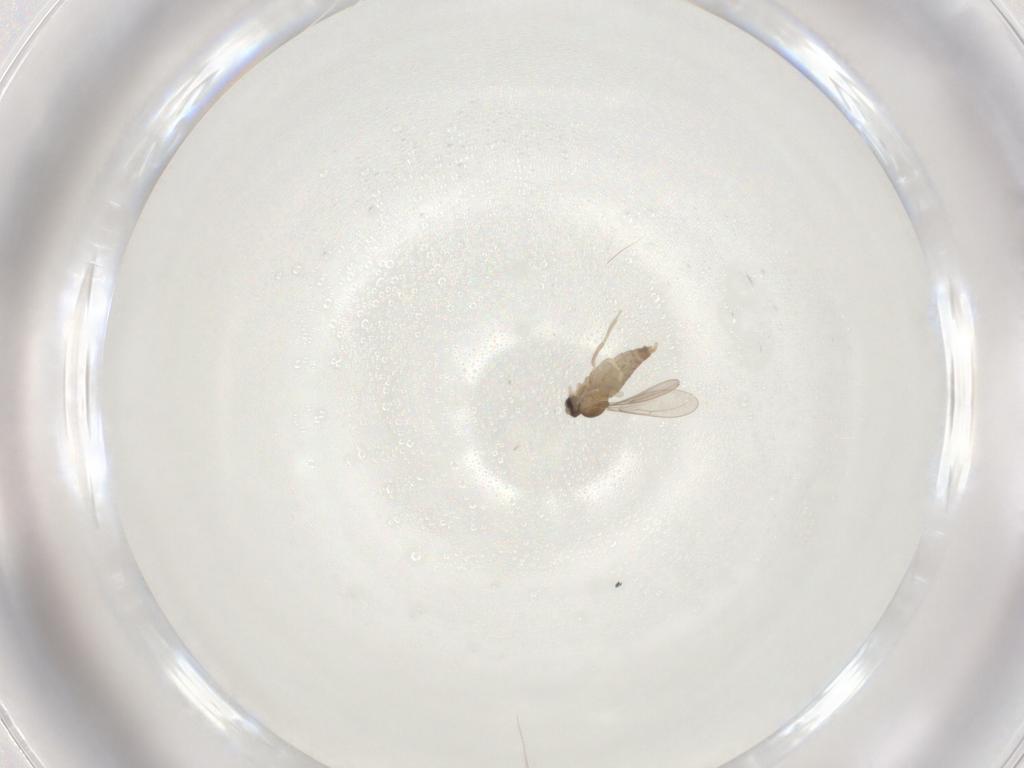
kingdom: Animalia
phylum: Arthropoda
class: Insecta
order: Diptera
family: Cecidomyiidae
